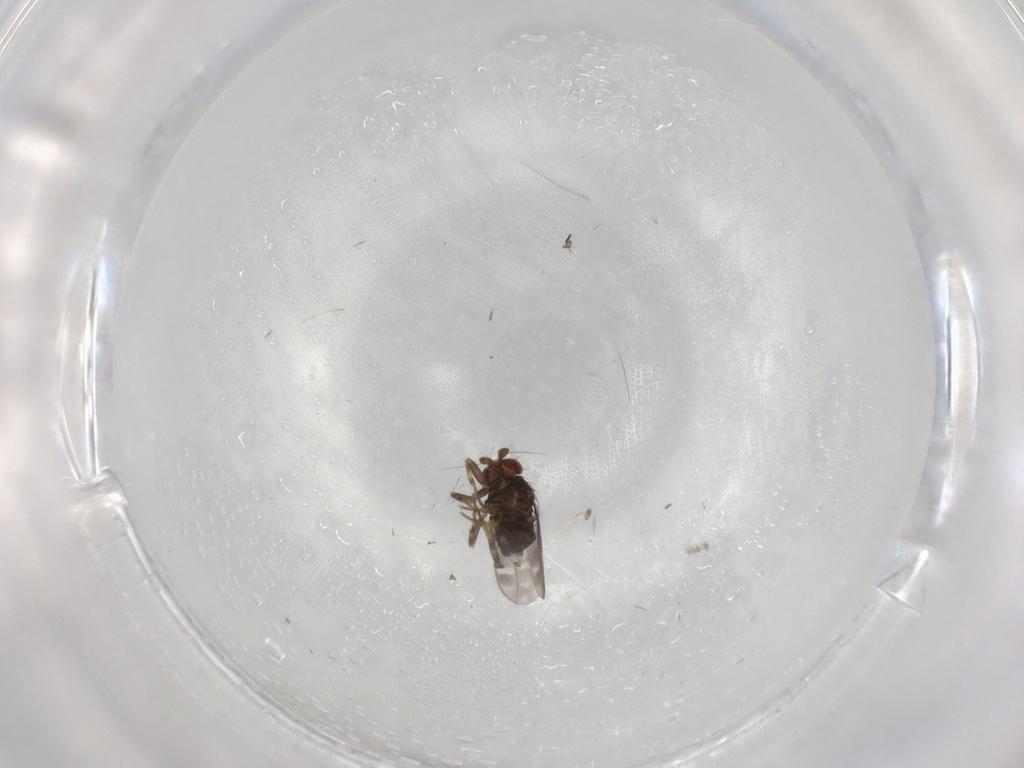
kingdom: Animalia
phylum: Arthropoda
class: Insecta
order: Diptera
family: Sphaeroceridae
